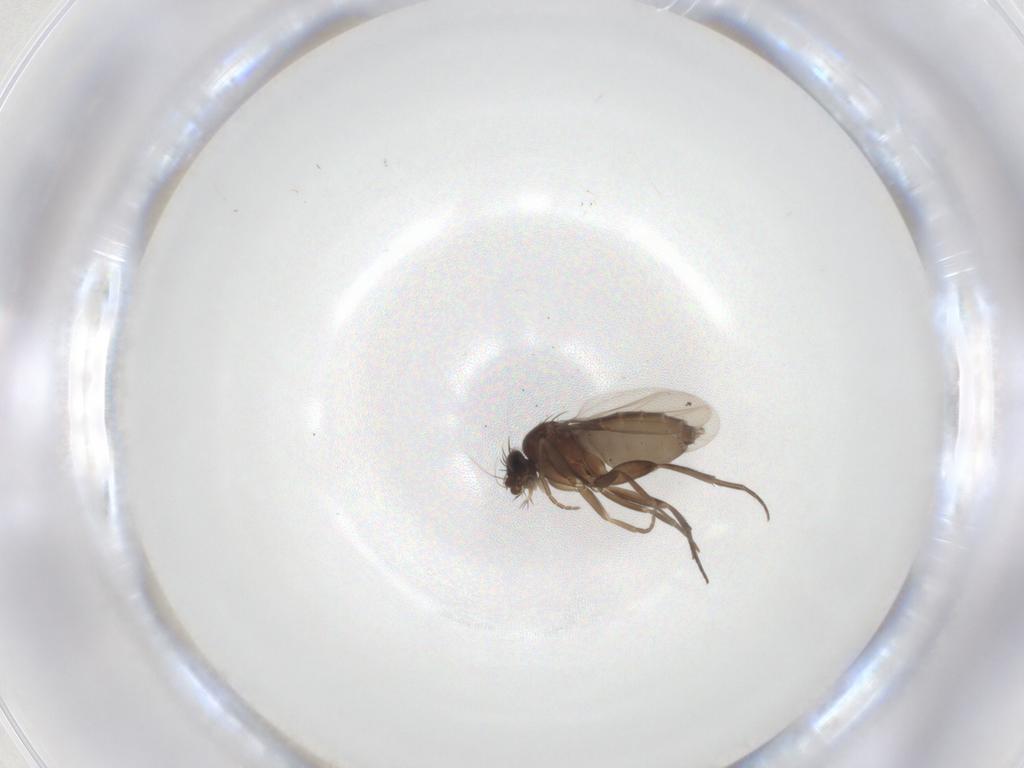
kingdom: Animalia
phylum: Arthropoda
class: Insecta
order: Diptera
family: Phoridae
